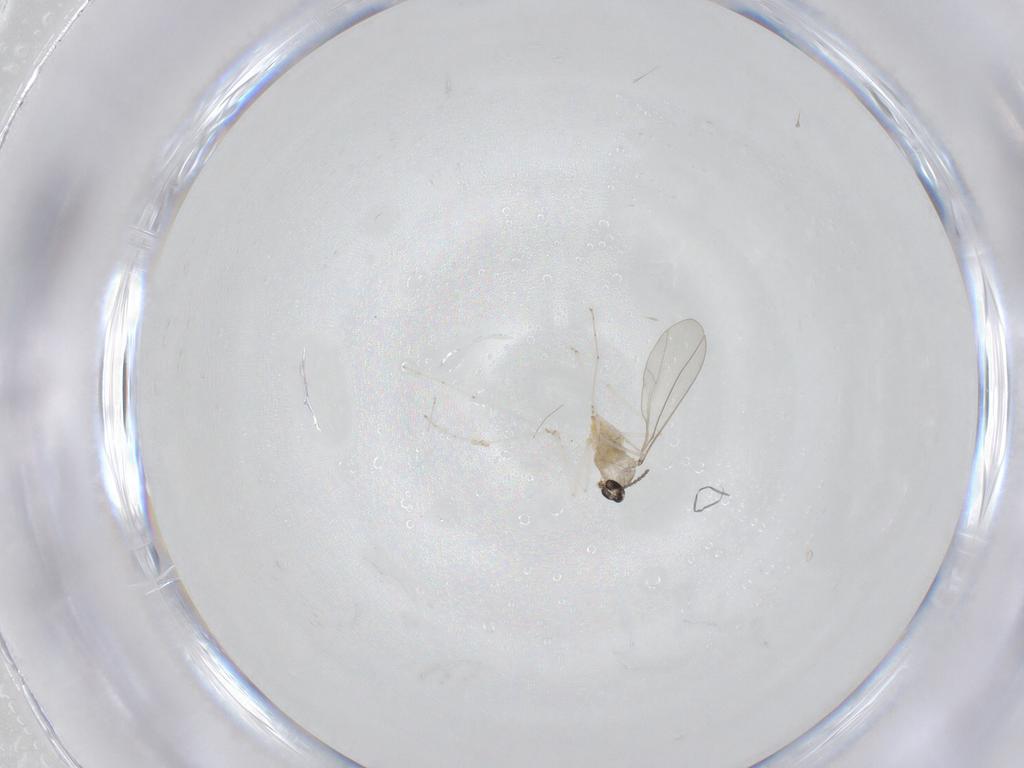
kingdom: Animalia
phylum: Arthropoda
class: Insecta
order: Diptera
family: Cecidomyiidae
